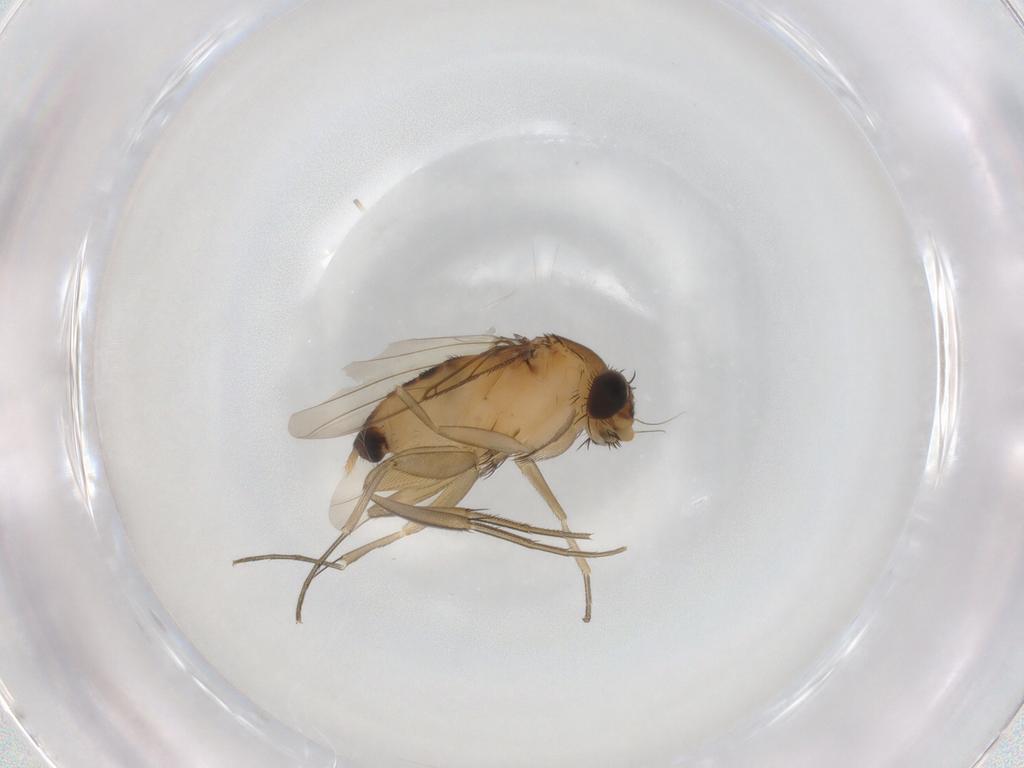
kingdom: Animalia
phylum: Arthropoda
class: Insecta
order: Diptera
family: Phoridae
